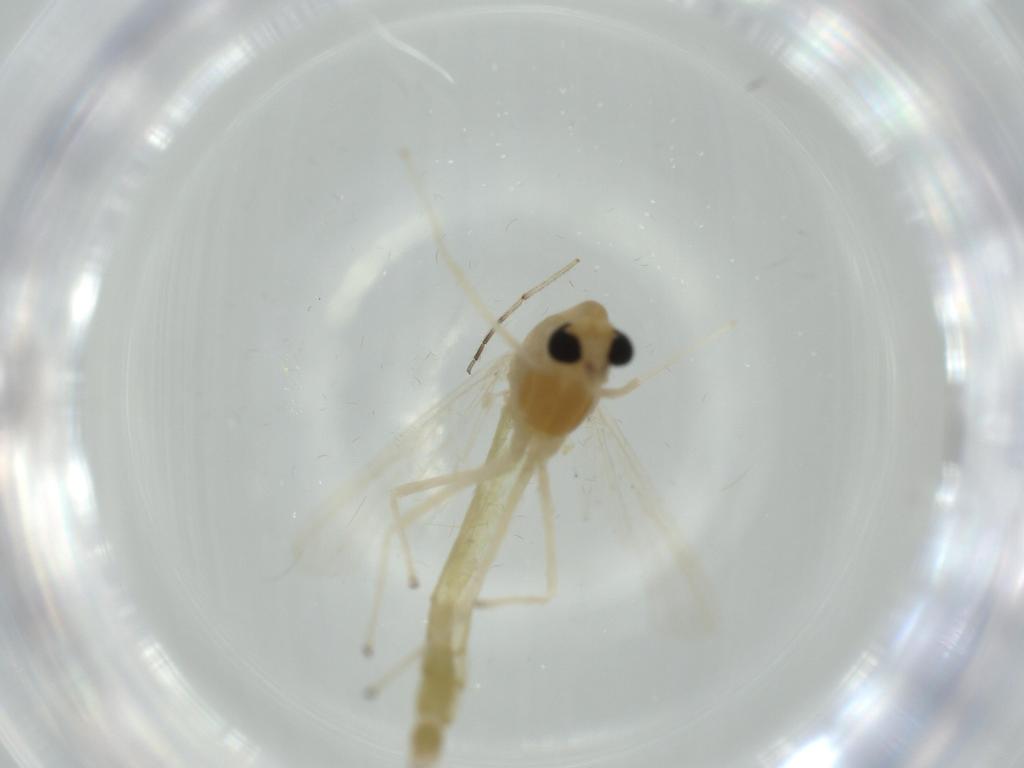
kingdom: Animalia
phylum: Arthropoda
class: Insecta
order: Diptera
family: Chironomidae
